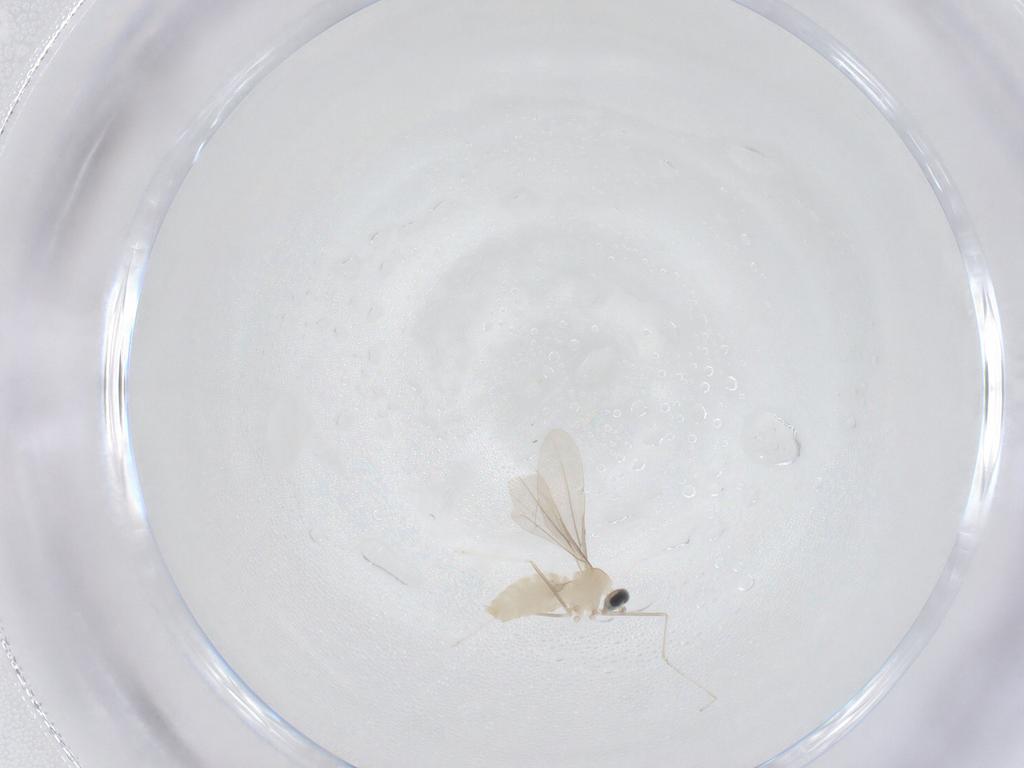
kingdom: Animalia
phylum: Arthropoda
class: Insecta
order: Diptera
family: Cecidomyiidae
